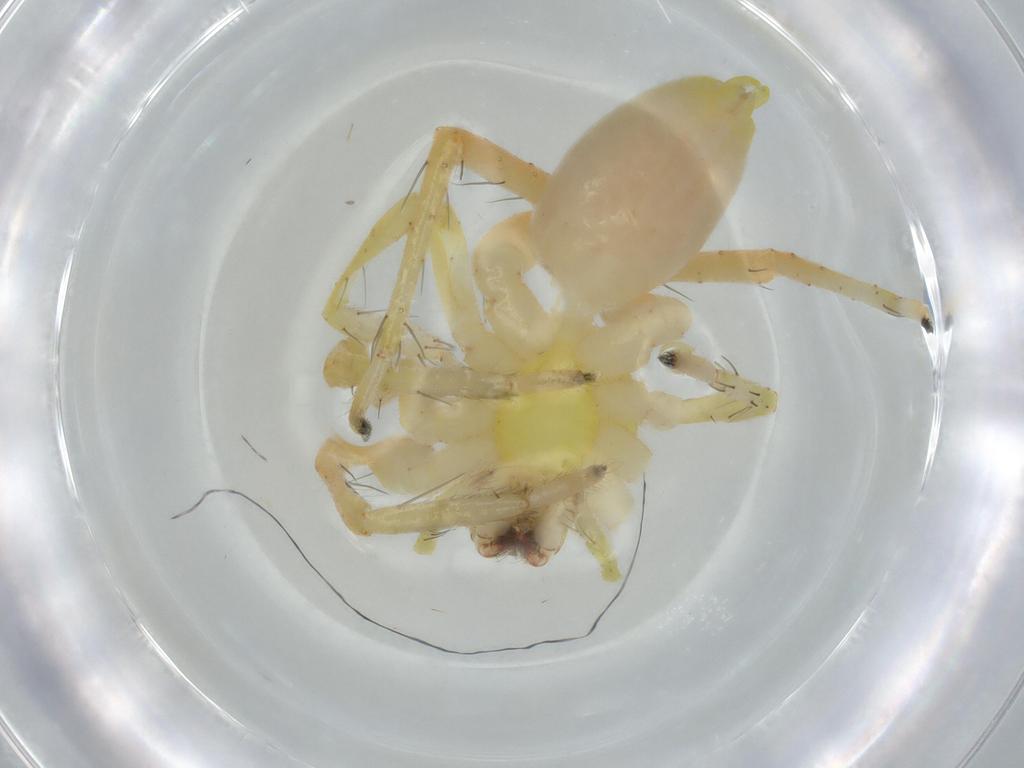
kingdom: Animalia
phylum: Arthropoda
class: Arachnida
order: Araneae
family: Anyphaenidae
